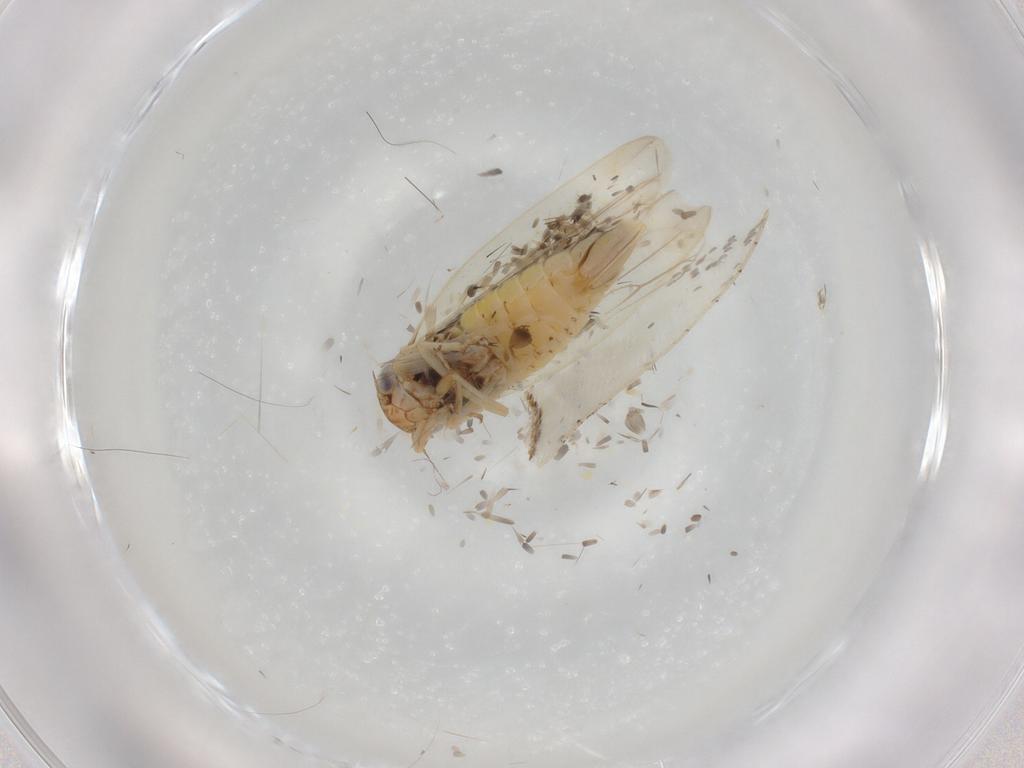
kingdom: Animalia
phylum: Arthropoda
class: Insecta
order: Hemiptera
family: Cicadellidae
